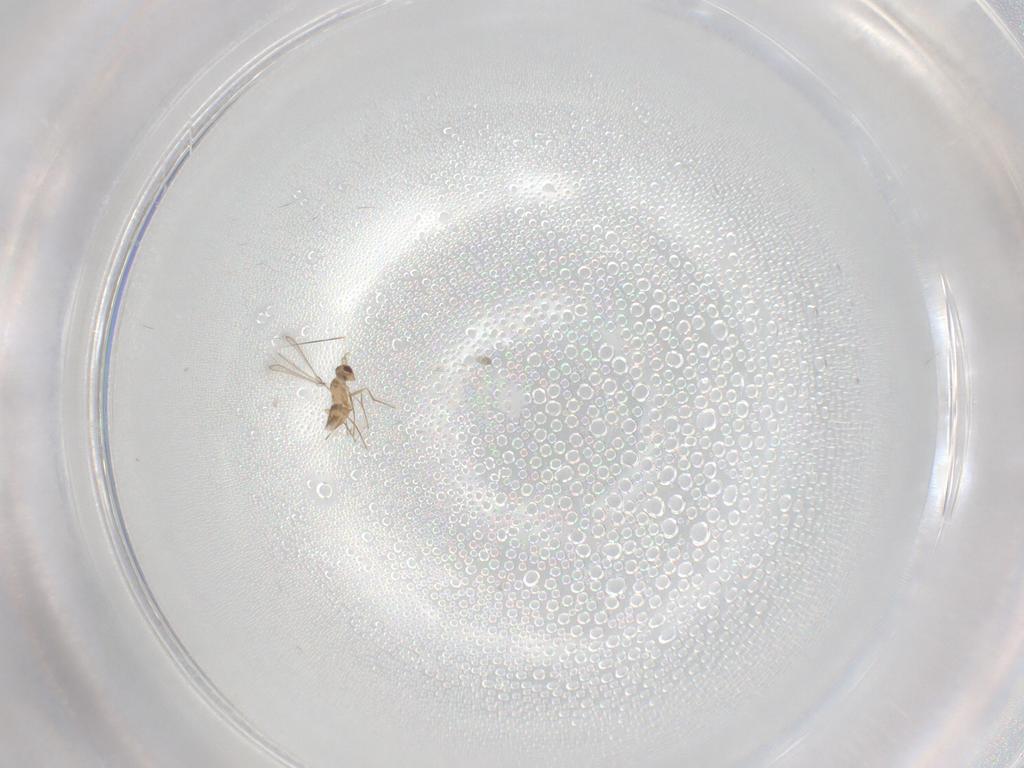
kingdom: Animalia
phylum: Arthropoda
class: Insecta
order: Hymenoptera
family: Mymaridae
